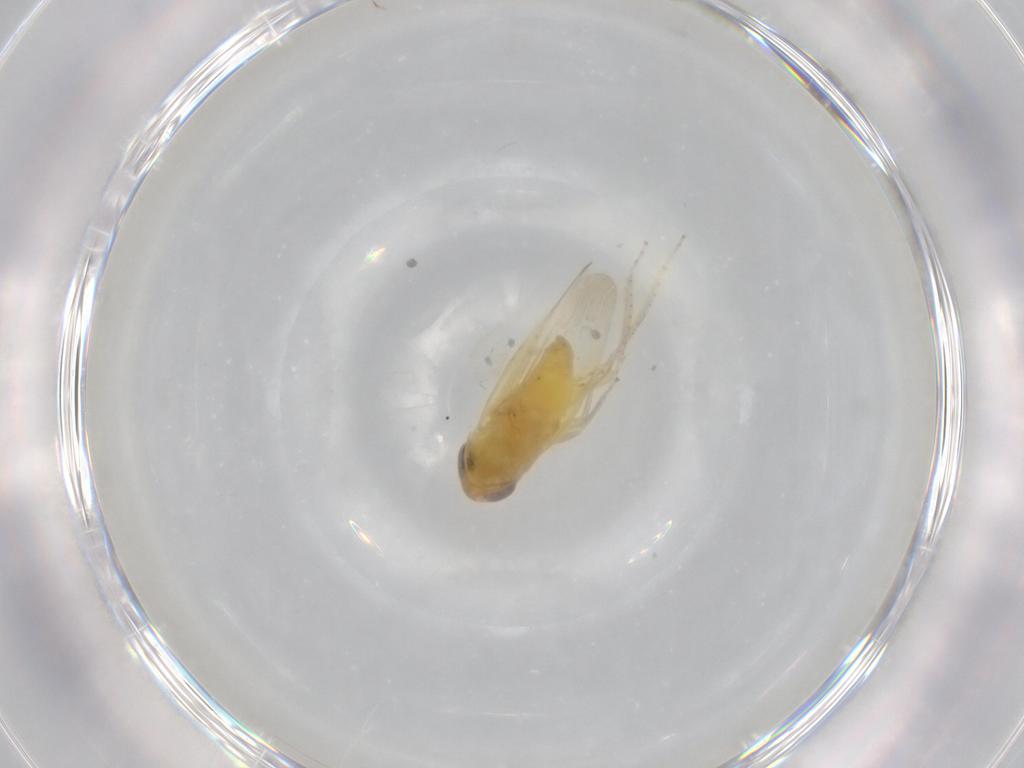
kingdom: Animalia
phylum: Arthropoda
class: Insecta
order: Hemiptera
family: Cicadellidae
